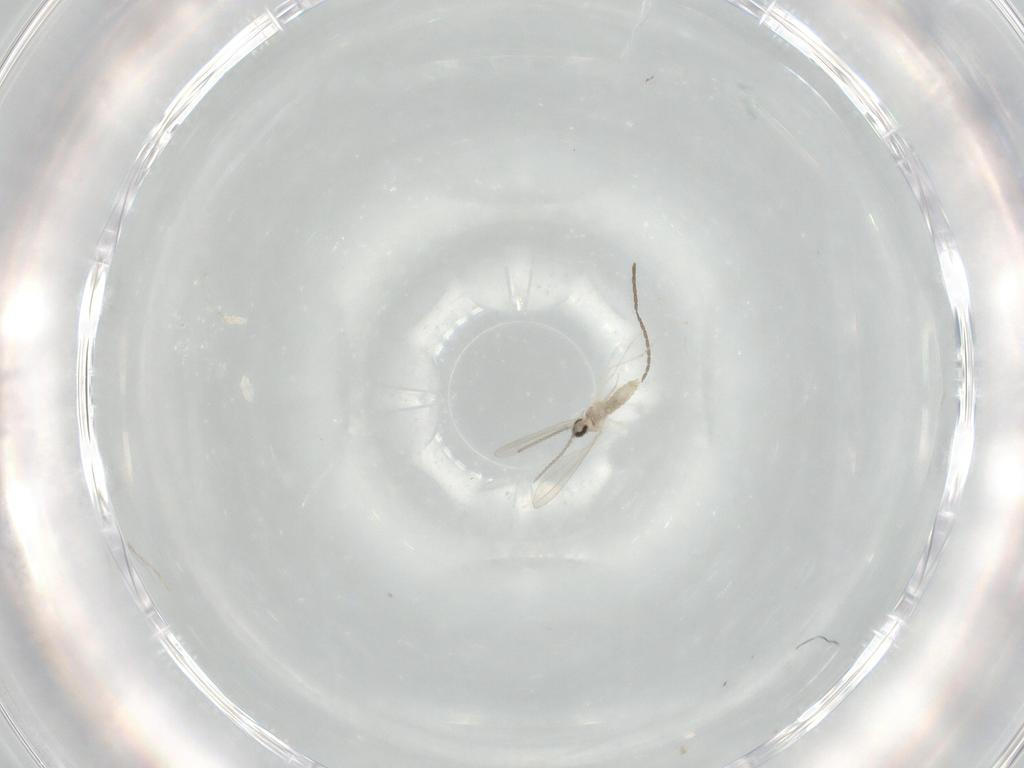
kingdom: Animalia
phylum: Arthropoda
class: Insecta
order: Diptera
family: Cecidomyiidae
